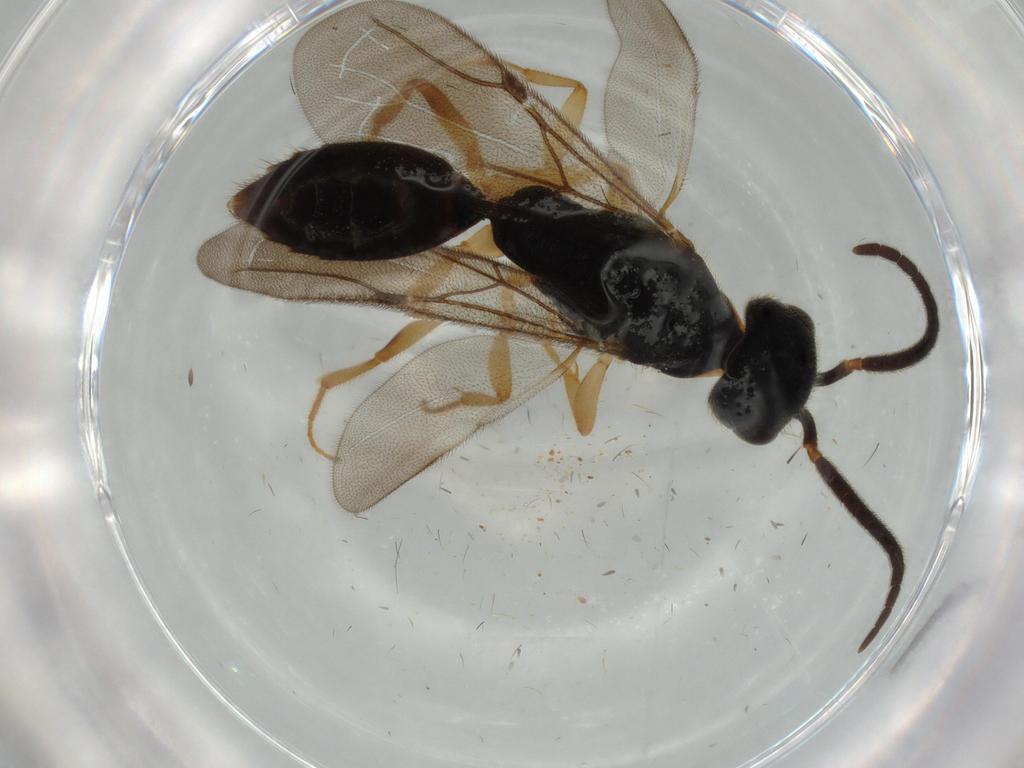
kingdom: Animalia
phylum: Arthropoda
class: Insecta
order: Hymenoptera
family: Bethylidae
